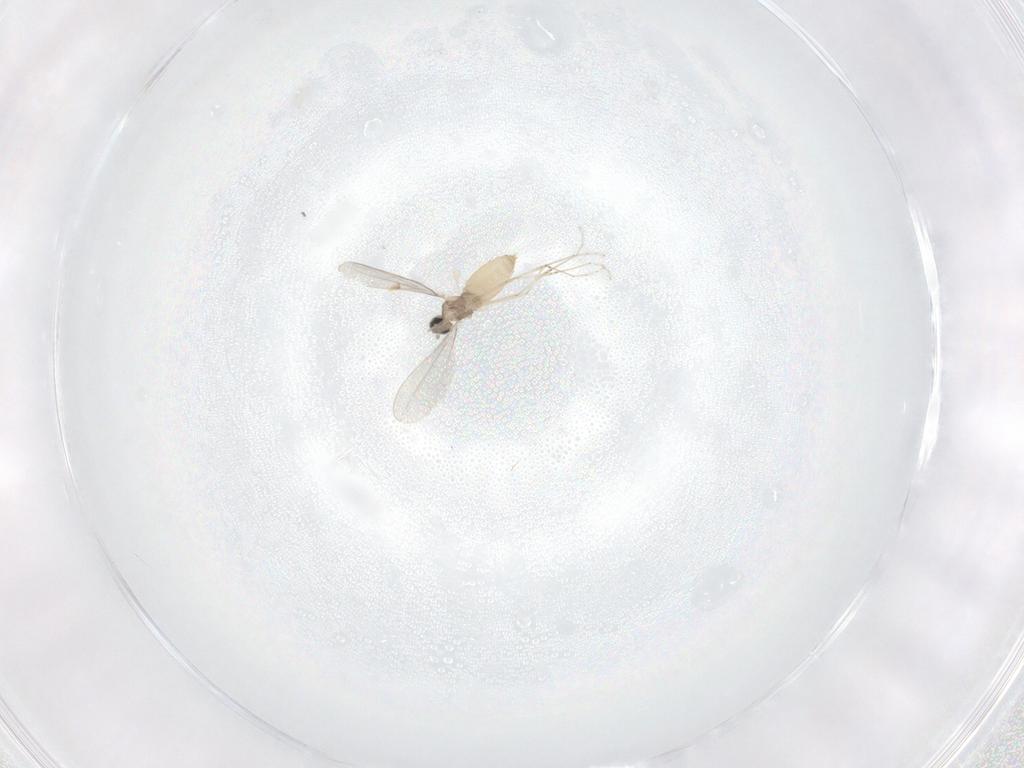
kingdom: Animalia
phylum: Arthropoda
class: Insecta
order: Diptera
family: Cecidomyiidae
